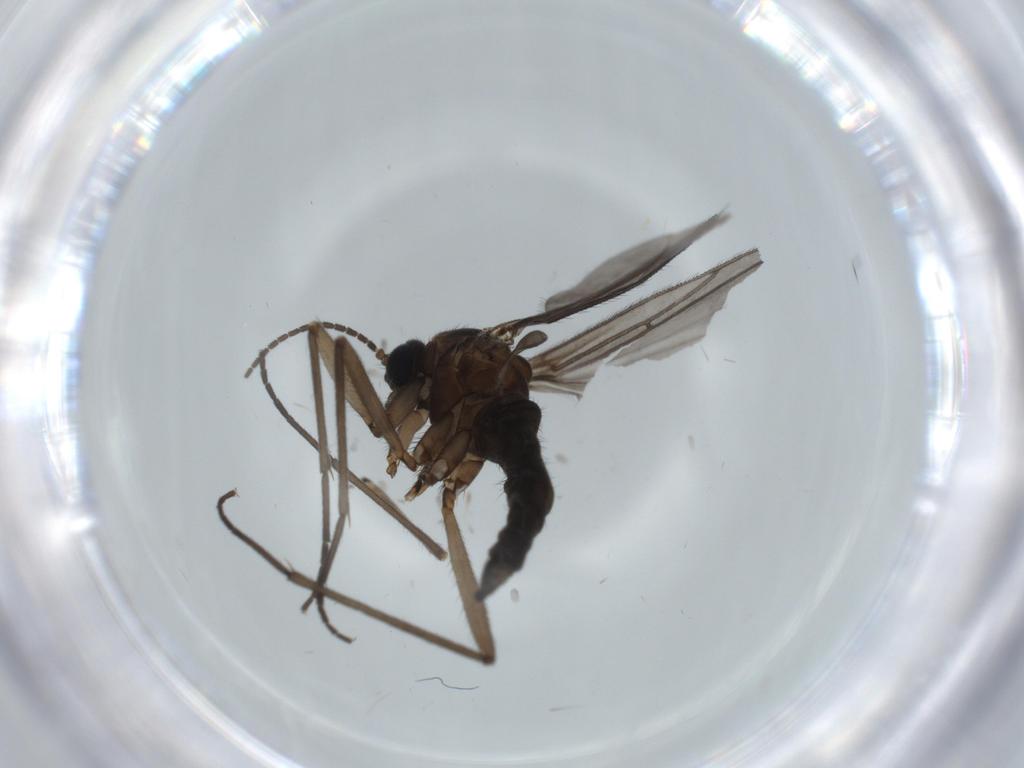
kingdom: Animalia
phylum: Arthropoda
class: Insecta
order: Diptera
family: Sciaridae
